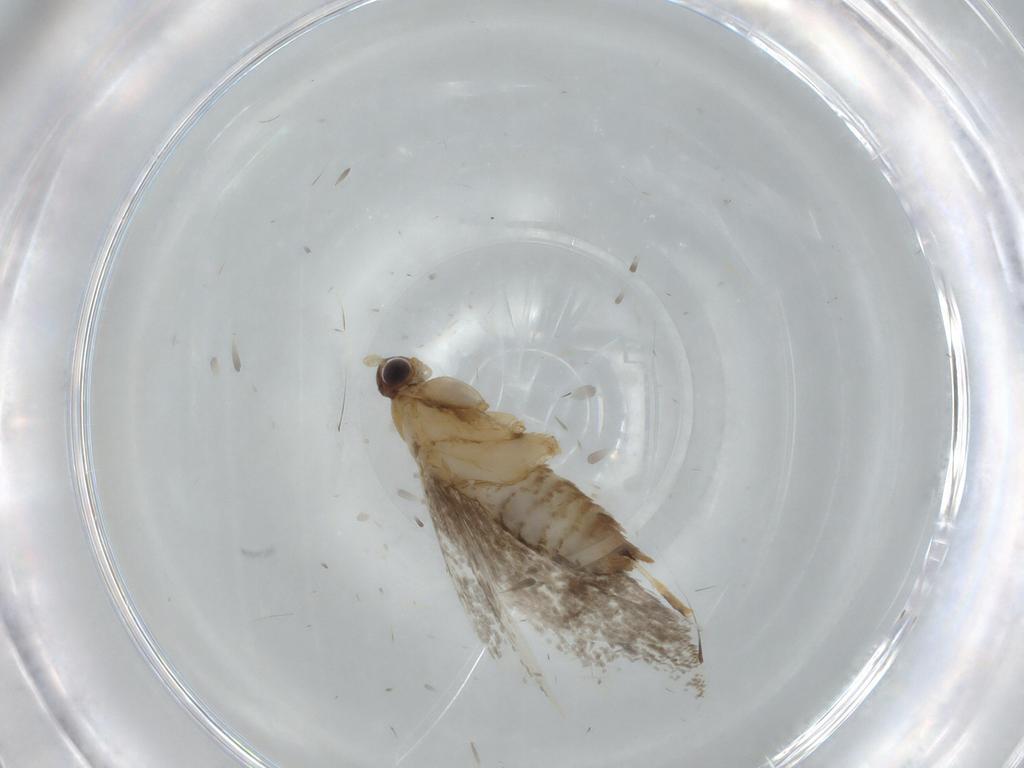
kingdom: Animalia
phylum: Arthropoda
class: Insecta
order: Lepidoptera
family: Tineidae
